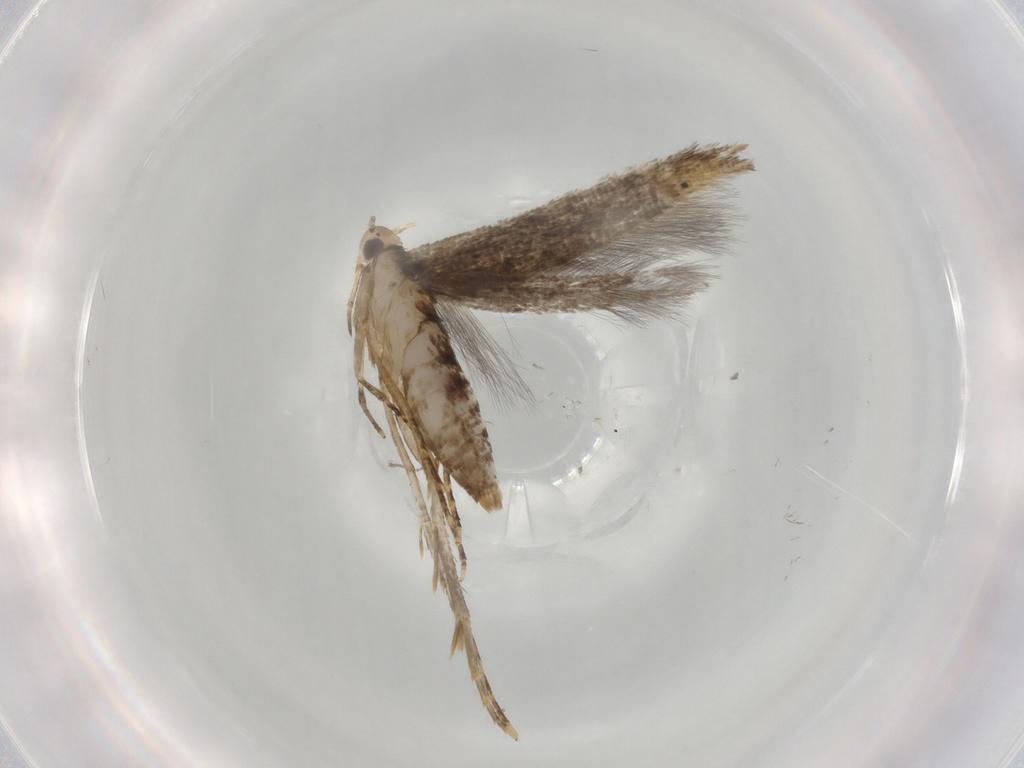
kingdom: Animalia
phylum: Arthropoda
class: Insecta
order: Lepidoptera
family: Cosmopterigidae
